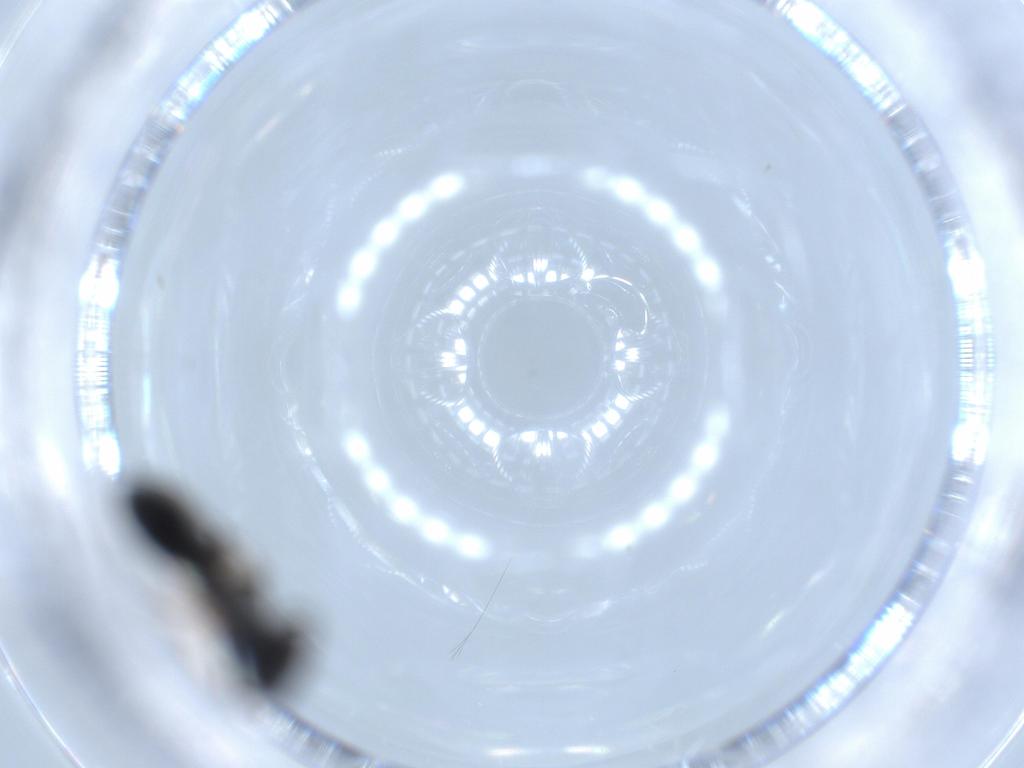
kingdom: Animalia
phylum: Arthropoda
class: Insecta
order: Hymenoptera
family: Bethylidae
